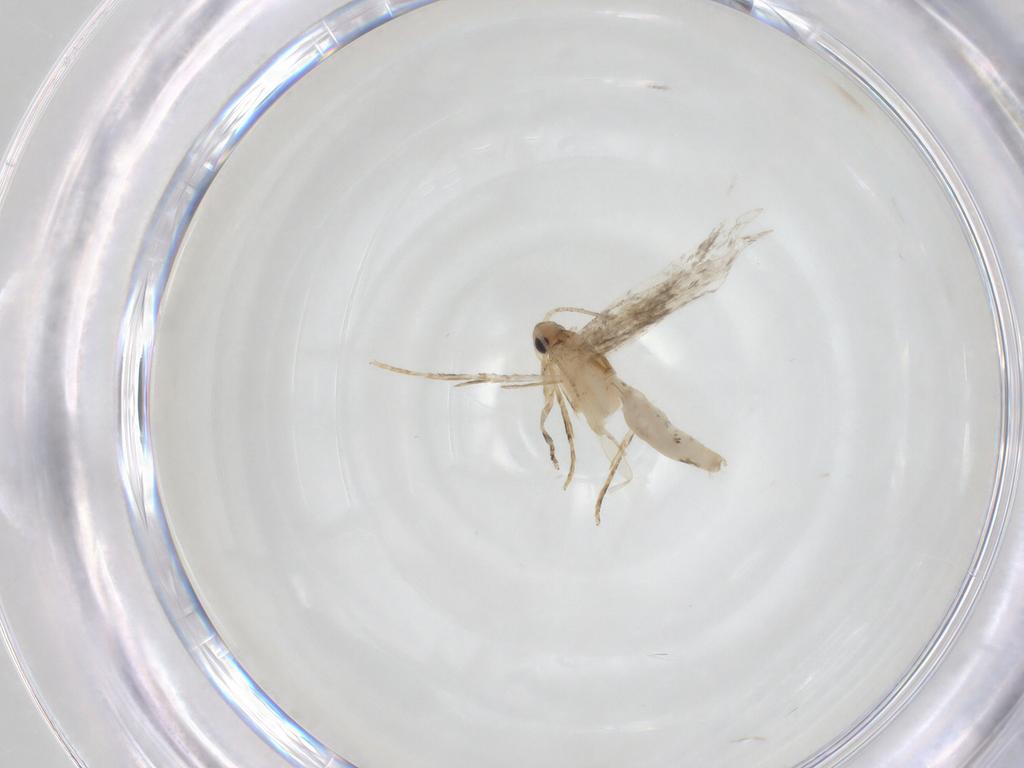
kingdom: Animalia
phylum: Arthropoda
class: Insecta
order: Lepidoptera
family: Tineidae
